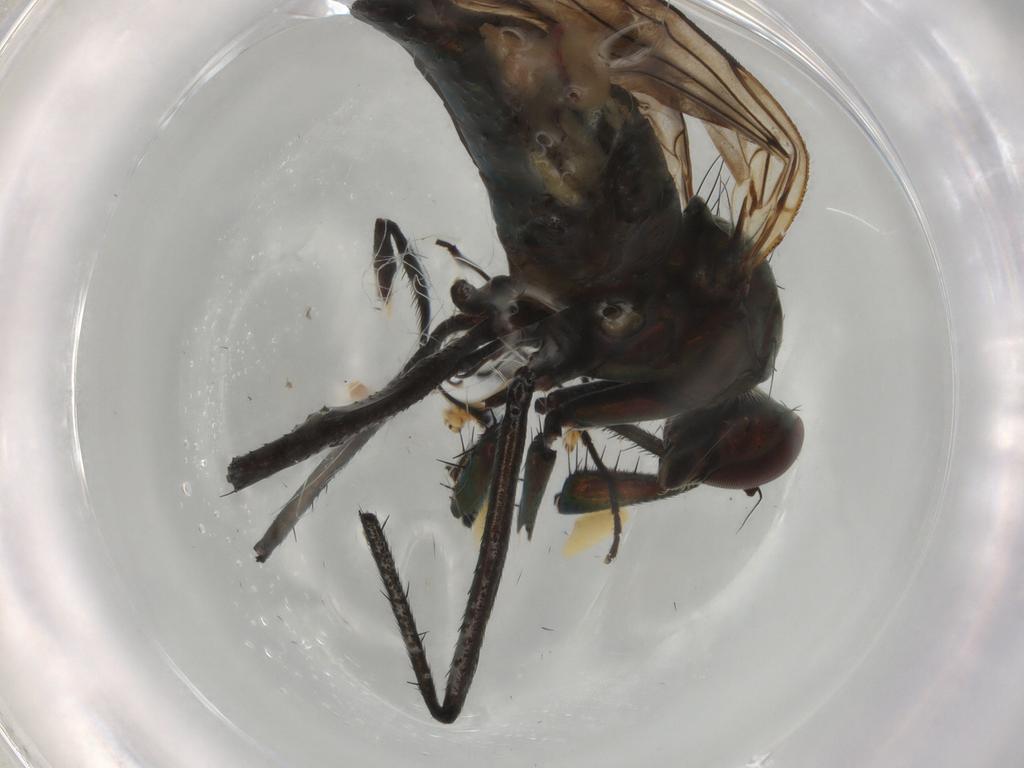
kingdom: Animalia
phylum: Arthropoda
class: Insecta
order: Diptera
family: Dolichopodidae
